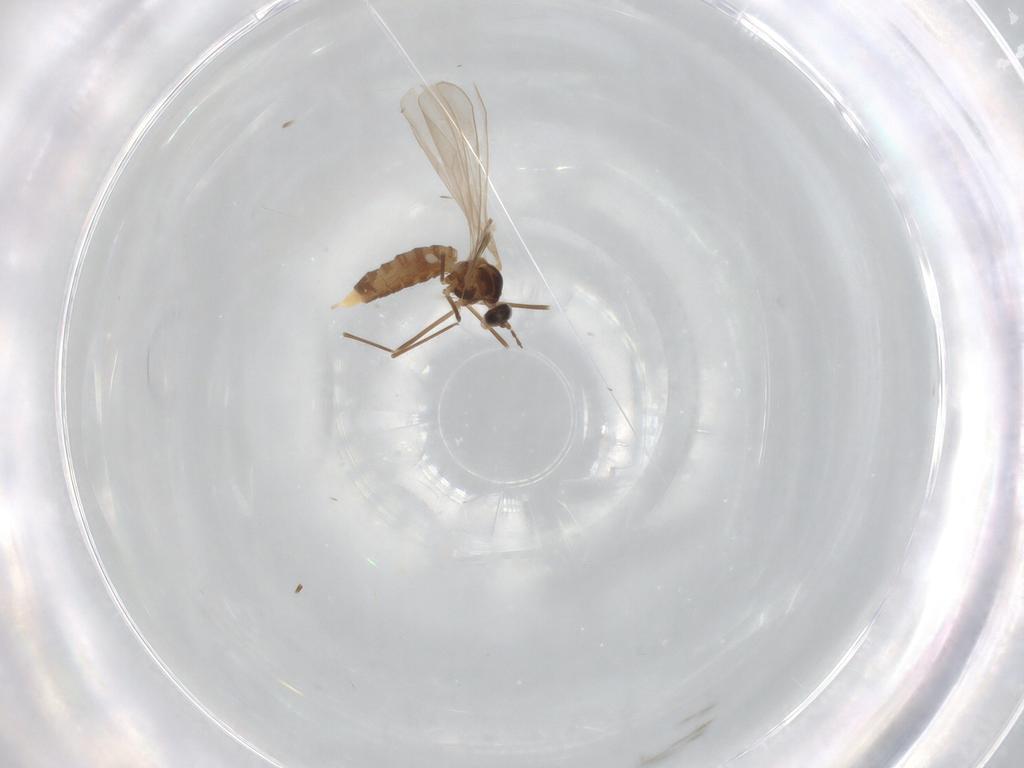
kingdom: Animalia
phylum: Arthropoda
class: Insecta
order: Diptera
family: Cecidomyiidae
